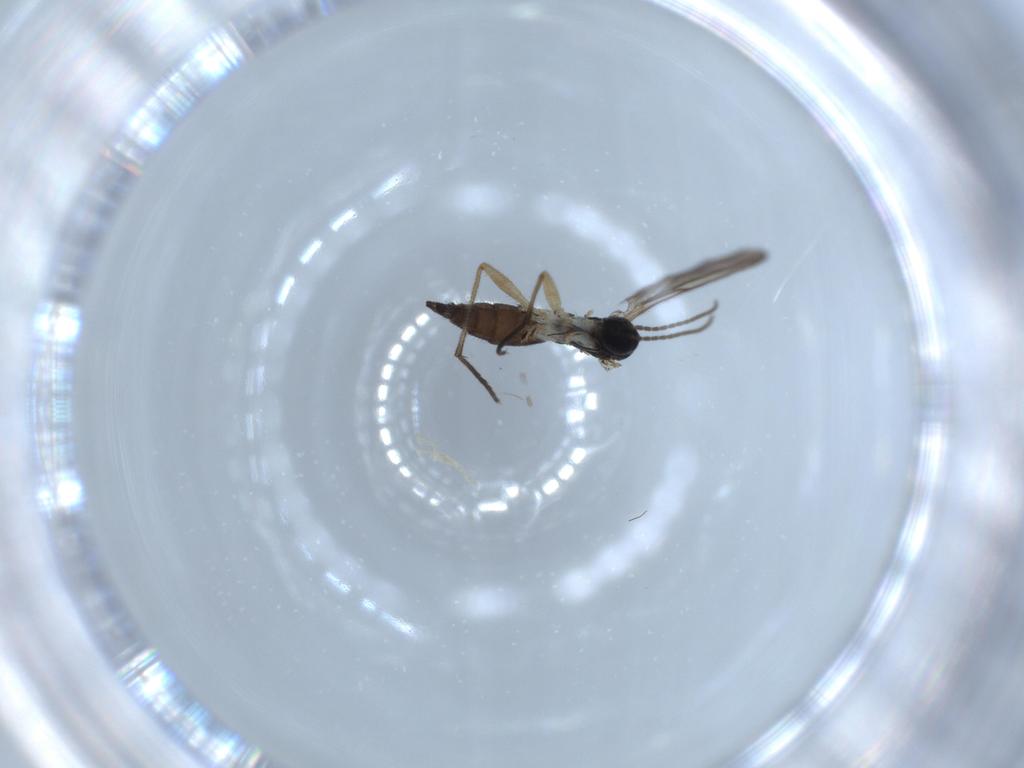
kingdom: Animalia
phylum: Arthropoda
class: Insecta
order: Diptera
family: Sciaridae
